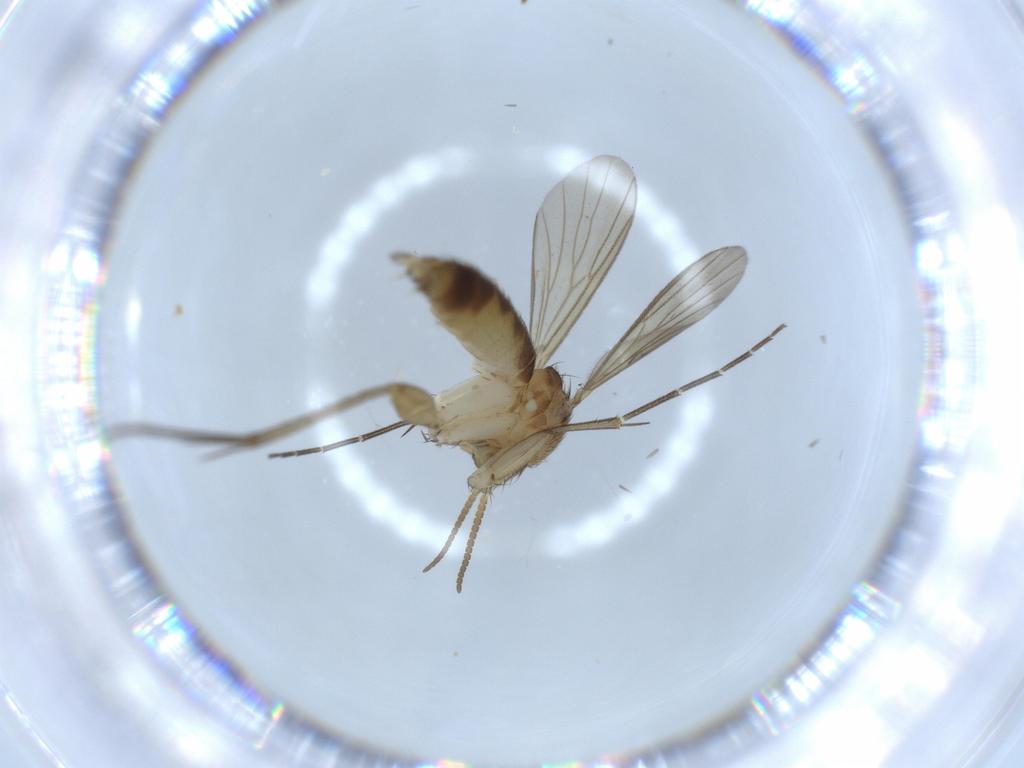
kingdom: Animalia
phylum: Arthropoda
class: Insecta
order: Diptera
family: Mycetophilidae
